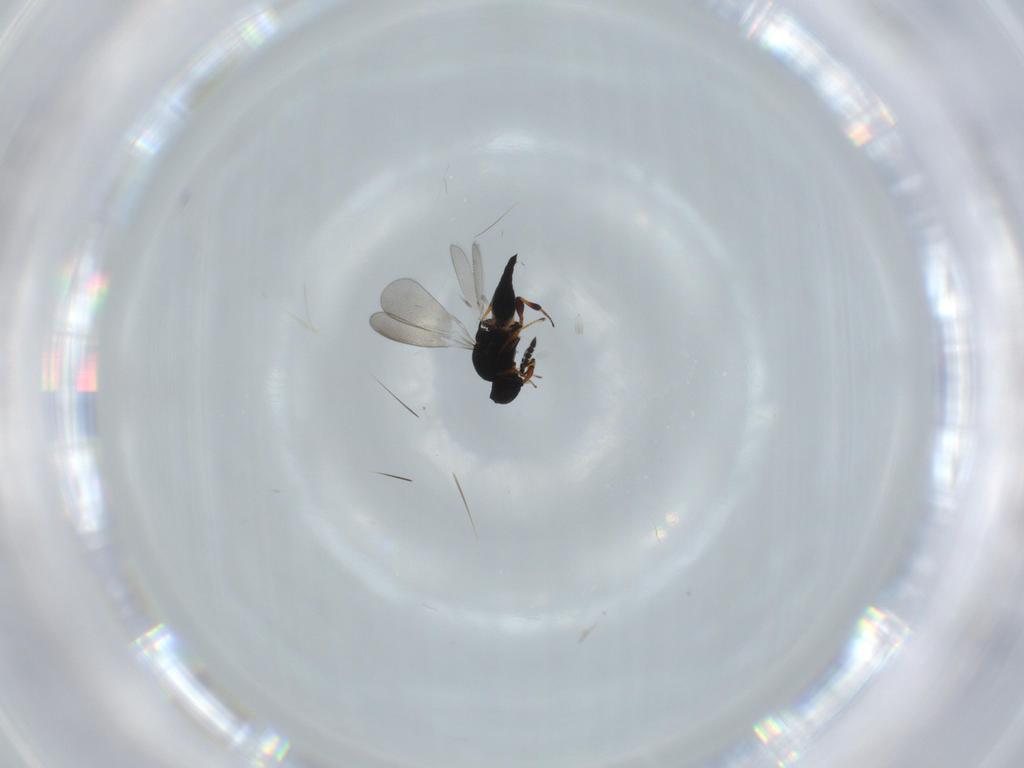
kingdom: Animalia
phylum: Arthropoda
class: Insecta
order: Hymenoptera
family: Platygastridae
